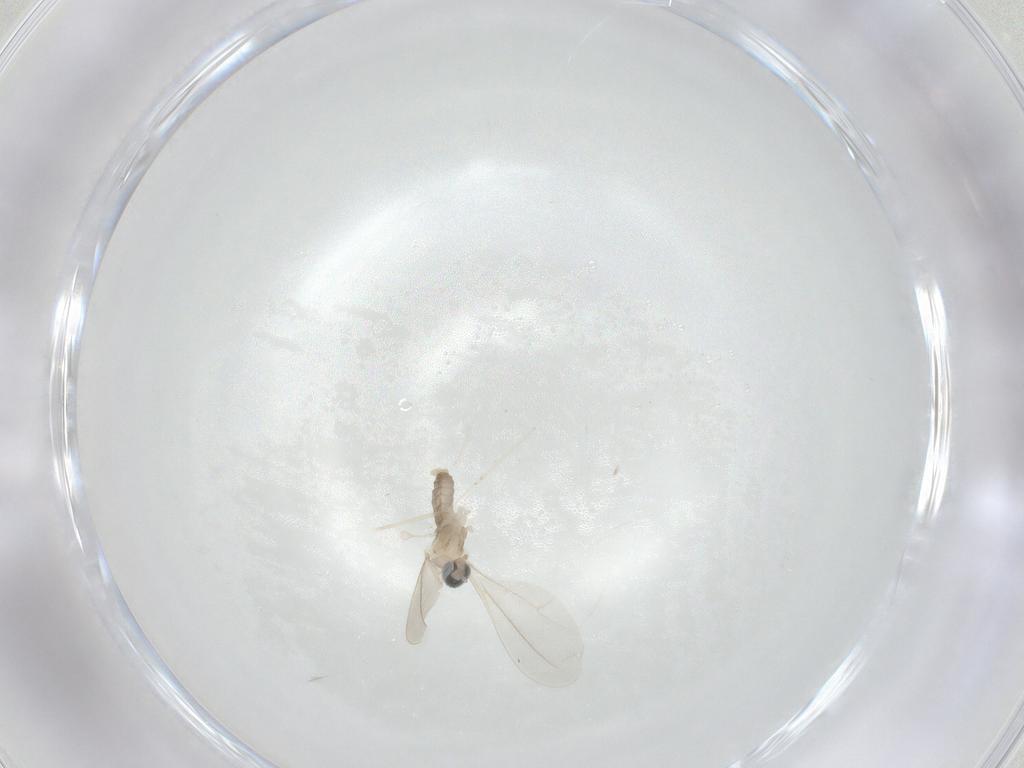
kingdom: Animalia
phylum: Arthropoda
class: Insecta
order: Diptera
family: Cecidomyiidae
